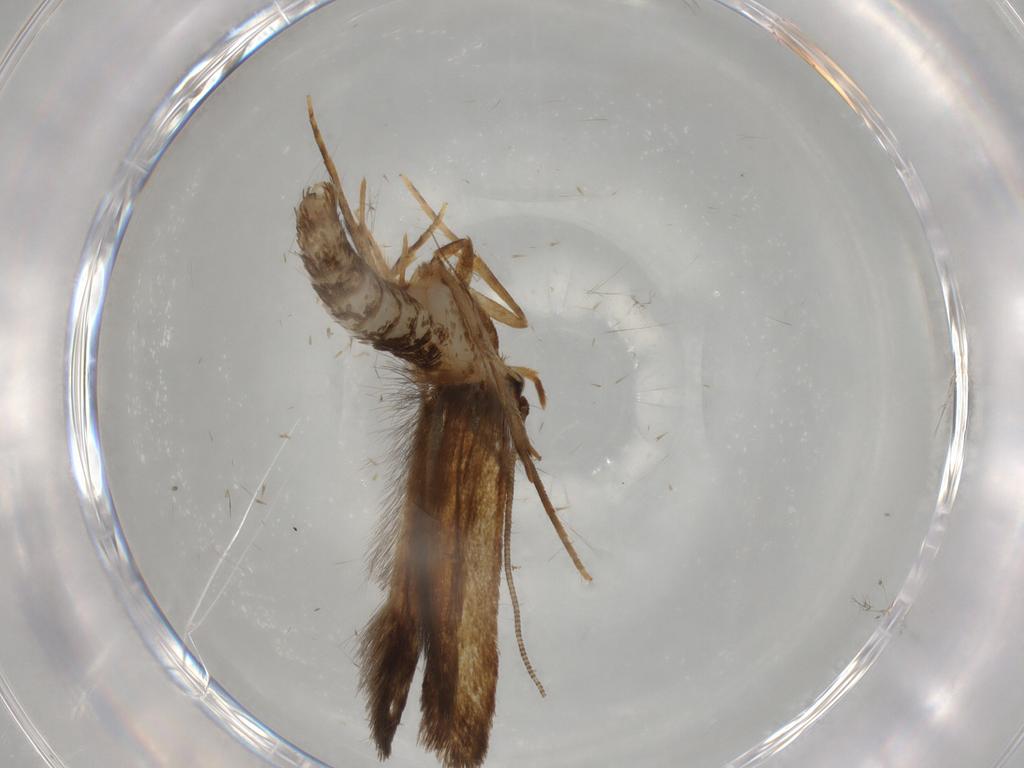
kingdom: Animalia
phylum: Arthropoda
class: Insecta
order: Lepidoptera
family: Tineidae
